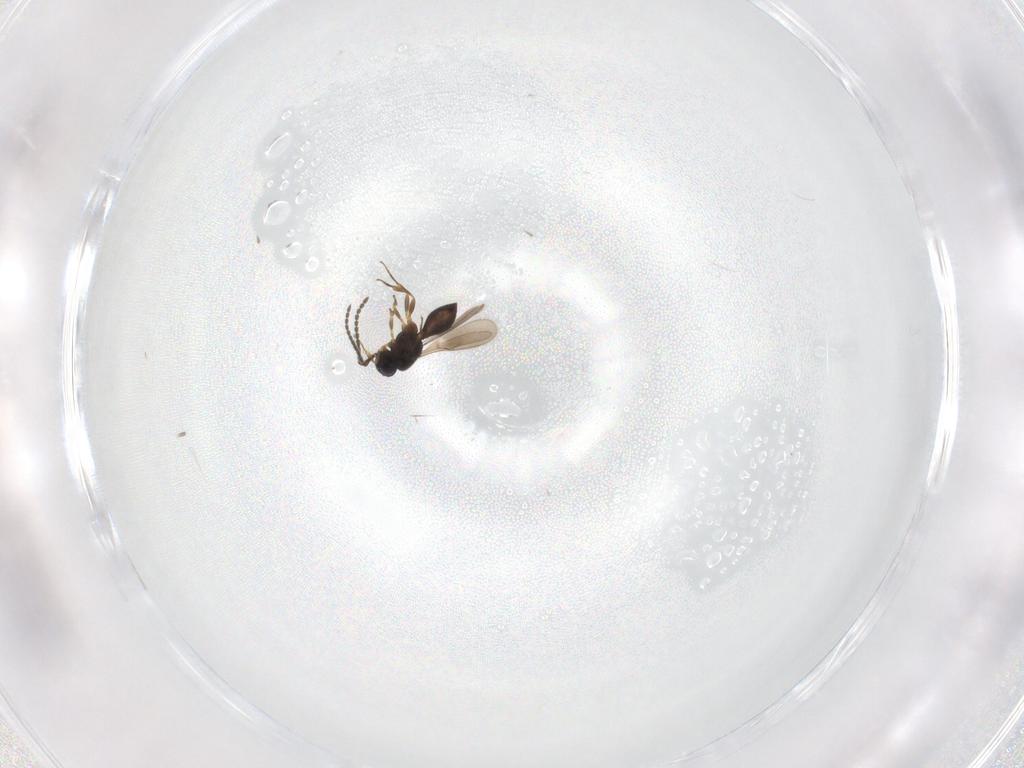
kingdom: Animalia
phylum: Arthropoda
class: Insecta
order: Hymenoptera
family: Scelionidae
